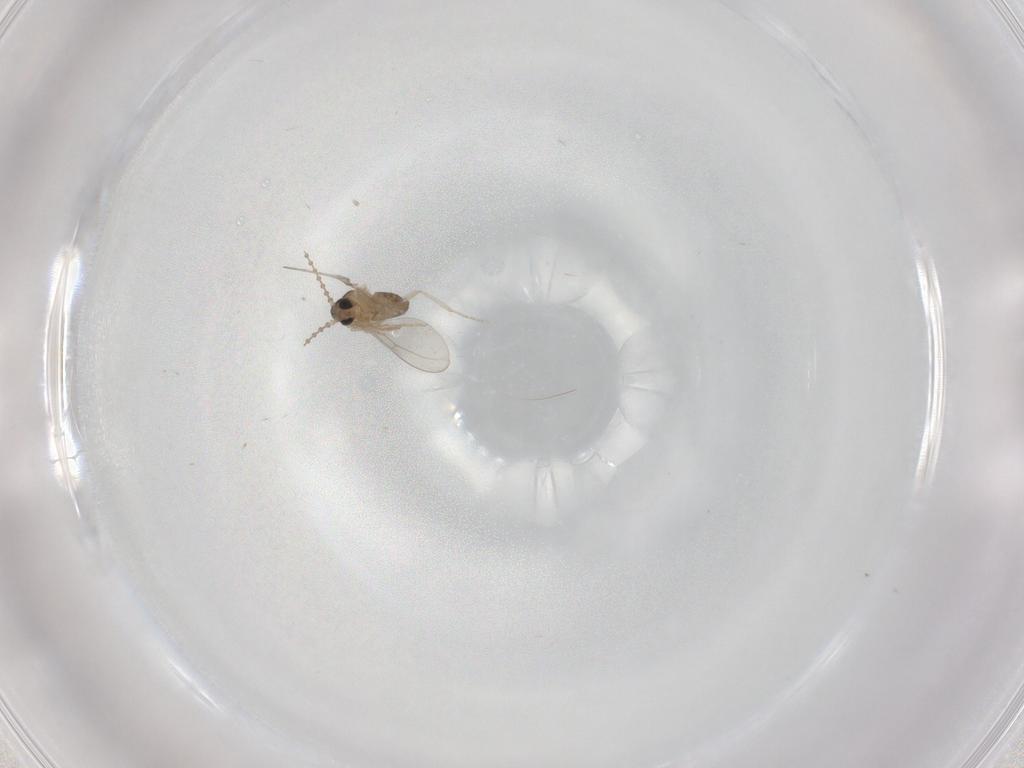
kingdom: Animalia
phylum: Arthropoda
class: Insecta
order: Diptera
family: Cecidomyiidae
